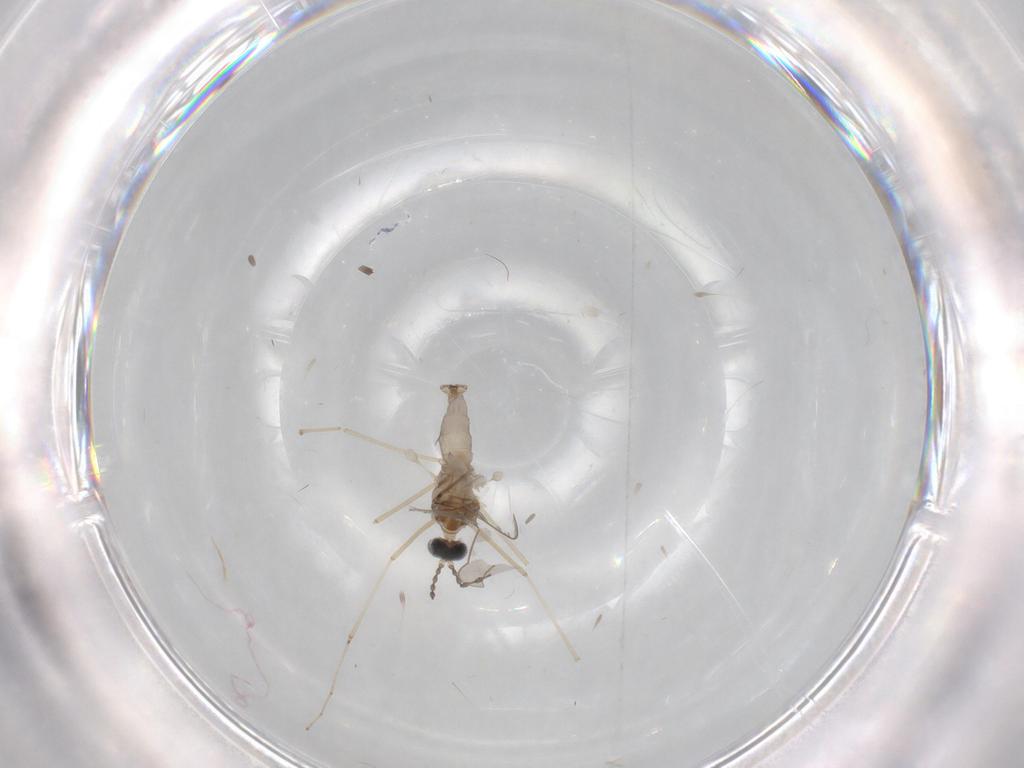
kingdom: Animalia
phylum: Arthropoda
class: Insecta
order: Diptera
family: Cecidomyiidae
